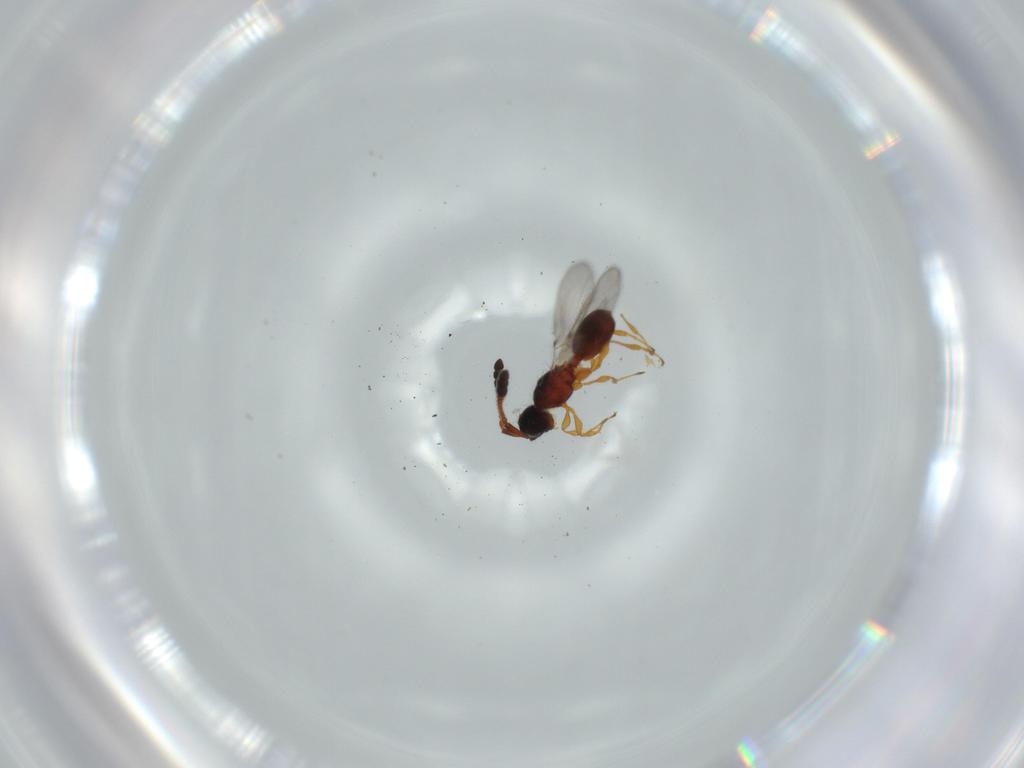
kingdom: Animalia
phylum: Arthropoda
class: Insecta
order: Hymenoptera
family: Diapriidae
